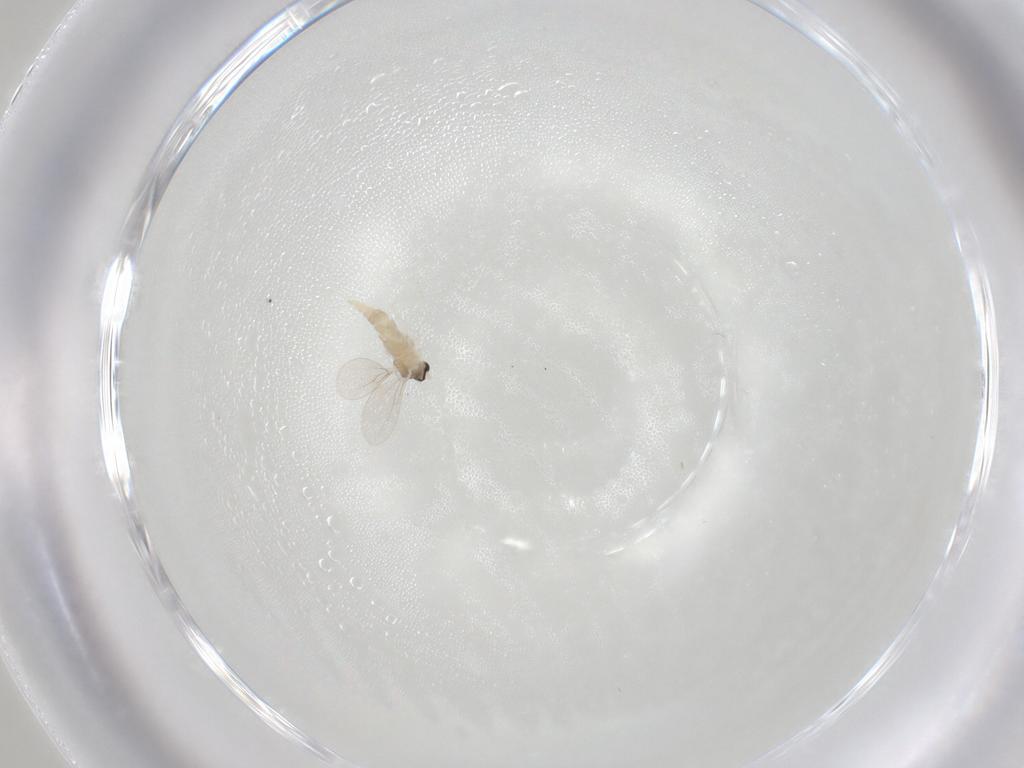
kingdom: Animalia
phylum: Arthropoda
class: Insecta
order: Diptera
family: Cecidomyiidae
